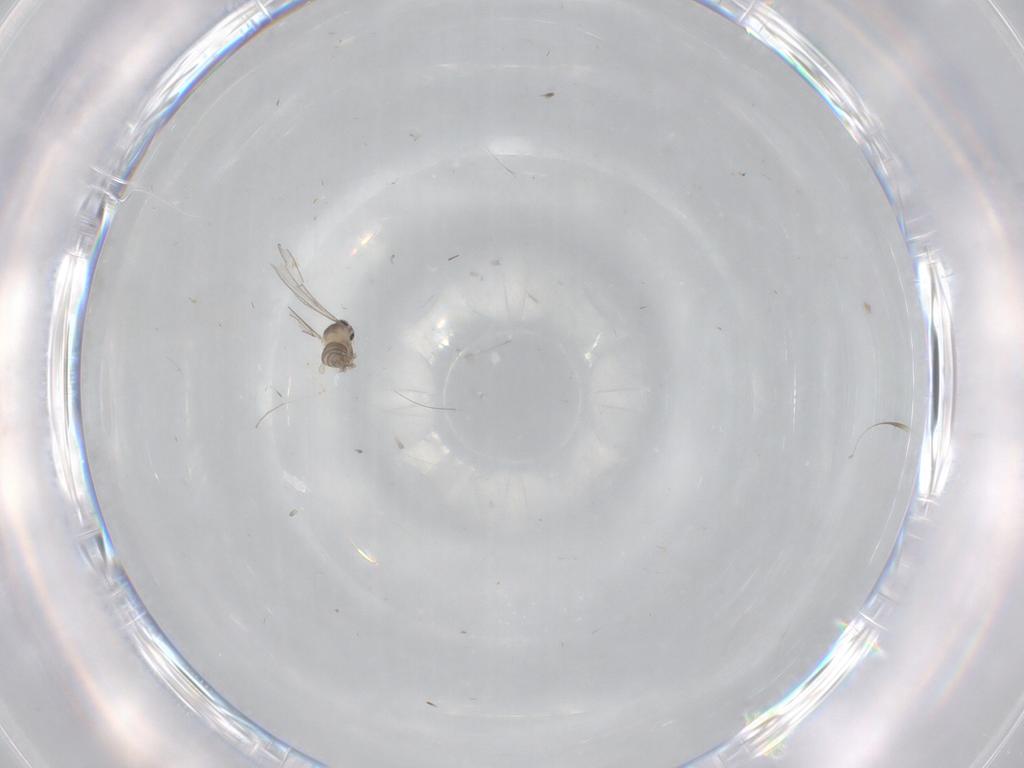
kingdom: Animalia
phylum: Arthropoda
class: Insecta
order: Diptera
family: Cecidomyiidae
